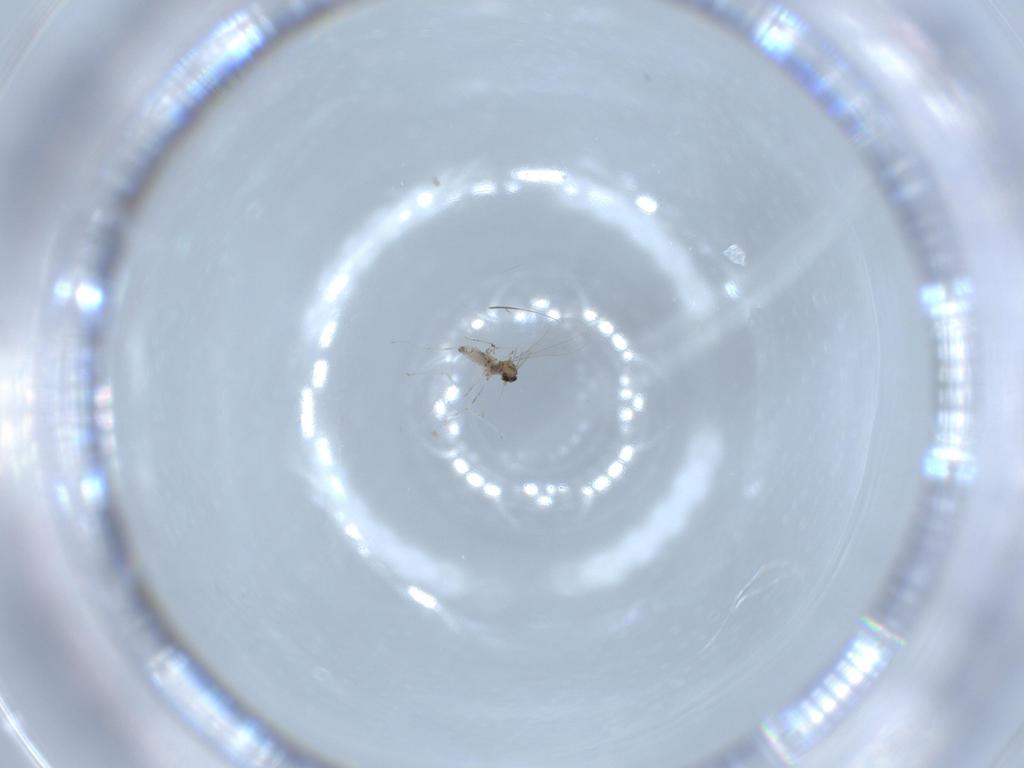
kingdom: Animalia
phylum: Arthropoda
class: Insecta
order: Diptera
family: Cecidomyiidae
